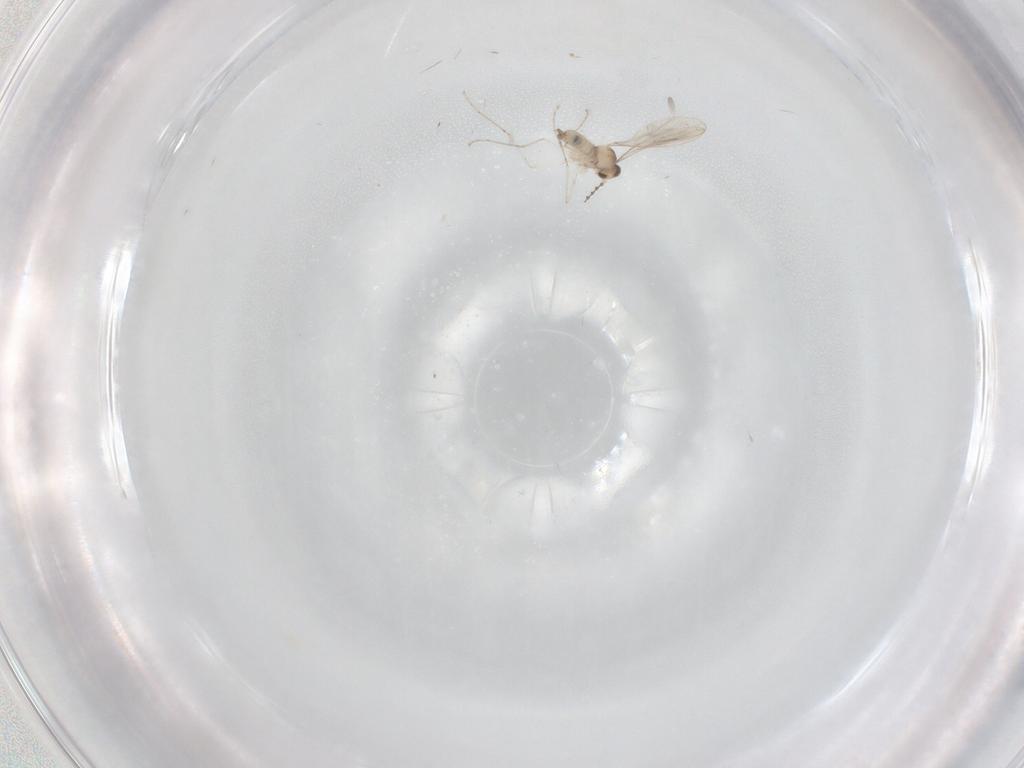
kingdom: Animalia
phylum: Arthropoda
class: Insecta
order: Diptera
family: Cecidomyiidae
